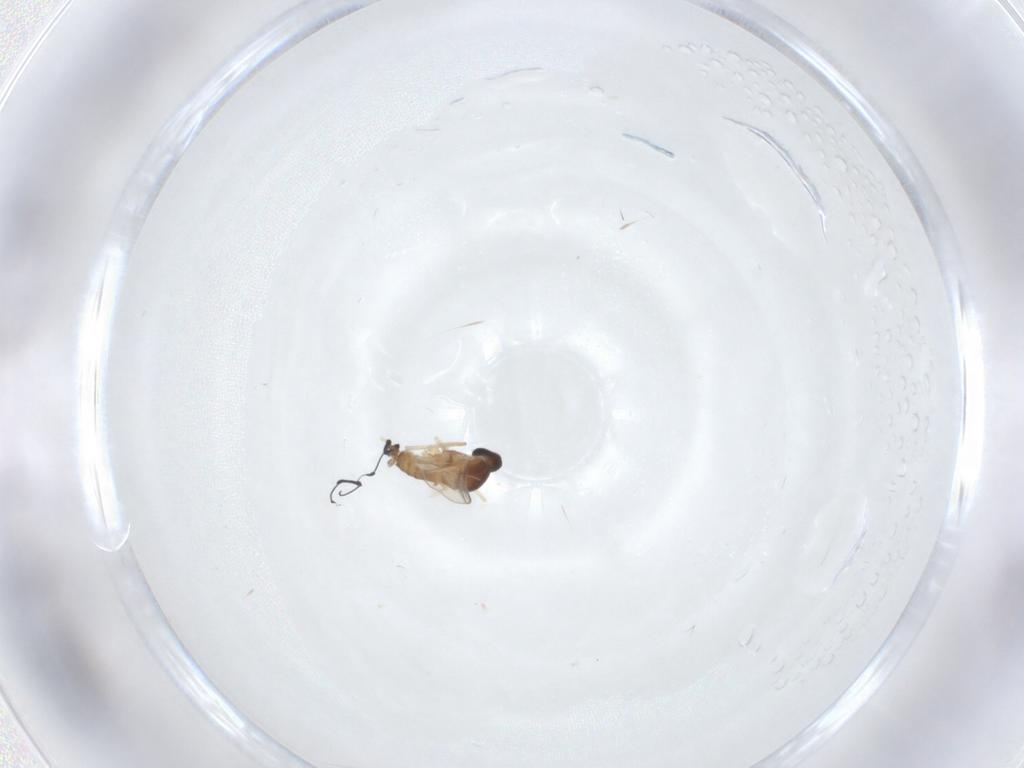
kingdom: Animalia
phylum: Arthropoda
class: Insecta
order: Diptera
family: Cecidomyiidae
